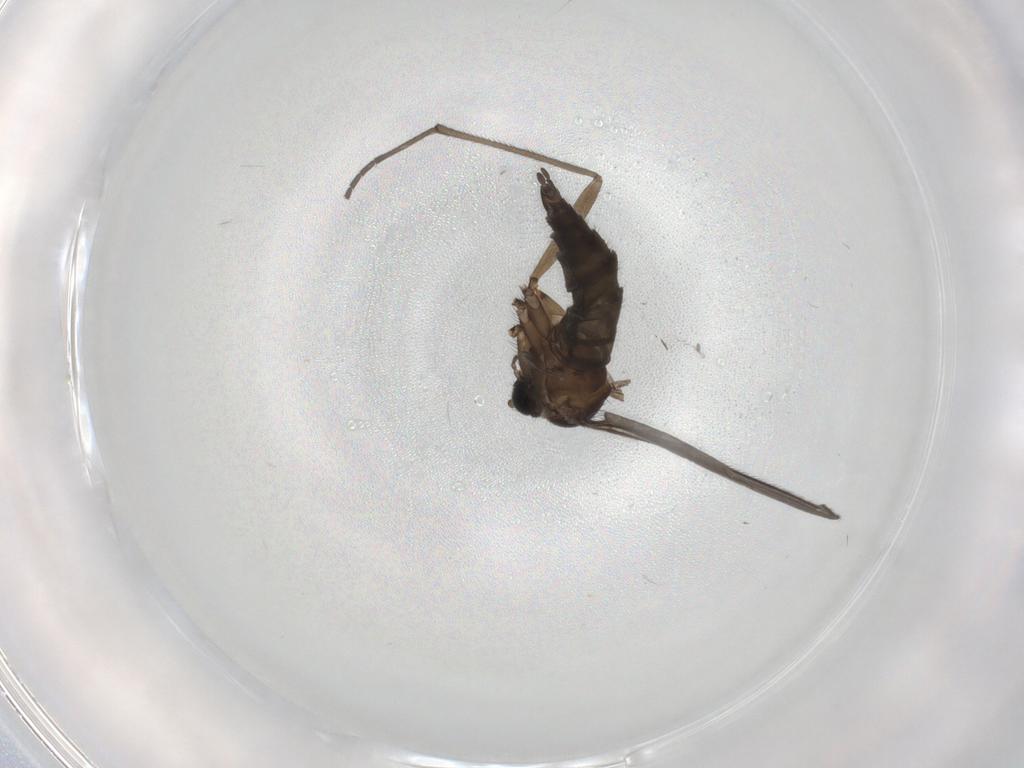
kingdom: Animalia
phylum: Arthropoda
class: Insecta
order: Diptera
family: Sciaridae
